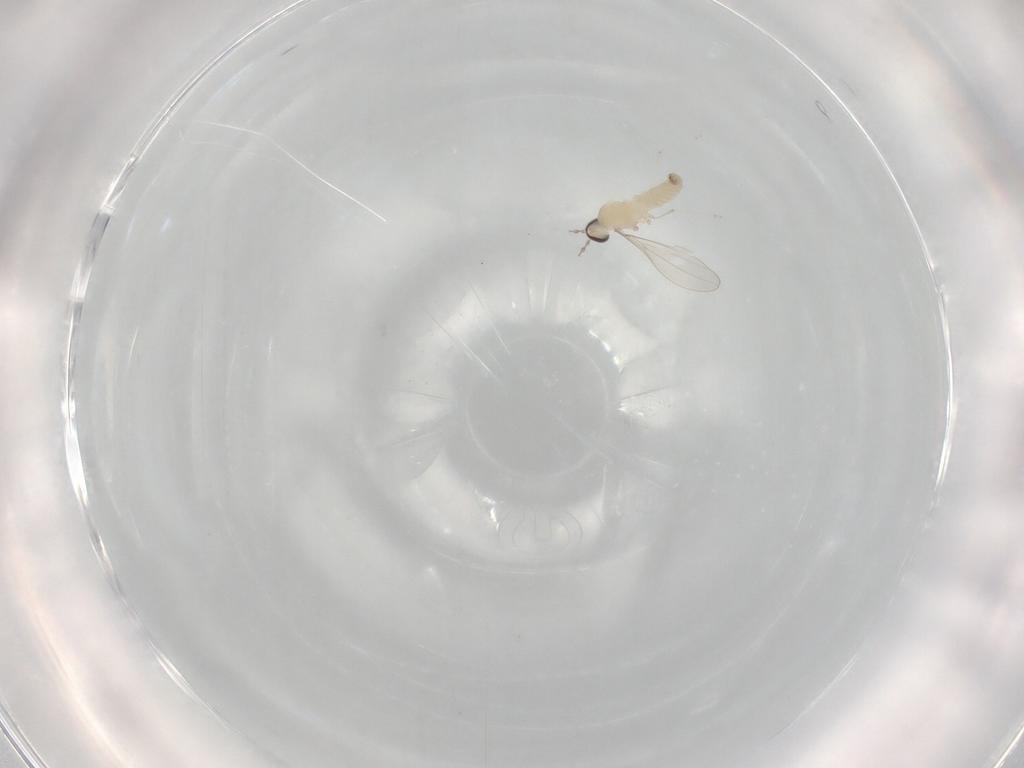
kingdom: Animalia
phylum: Arthropoda
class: Insecta
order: Diptera
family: Cecidomyiidae
